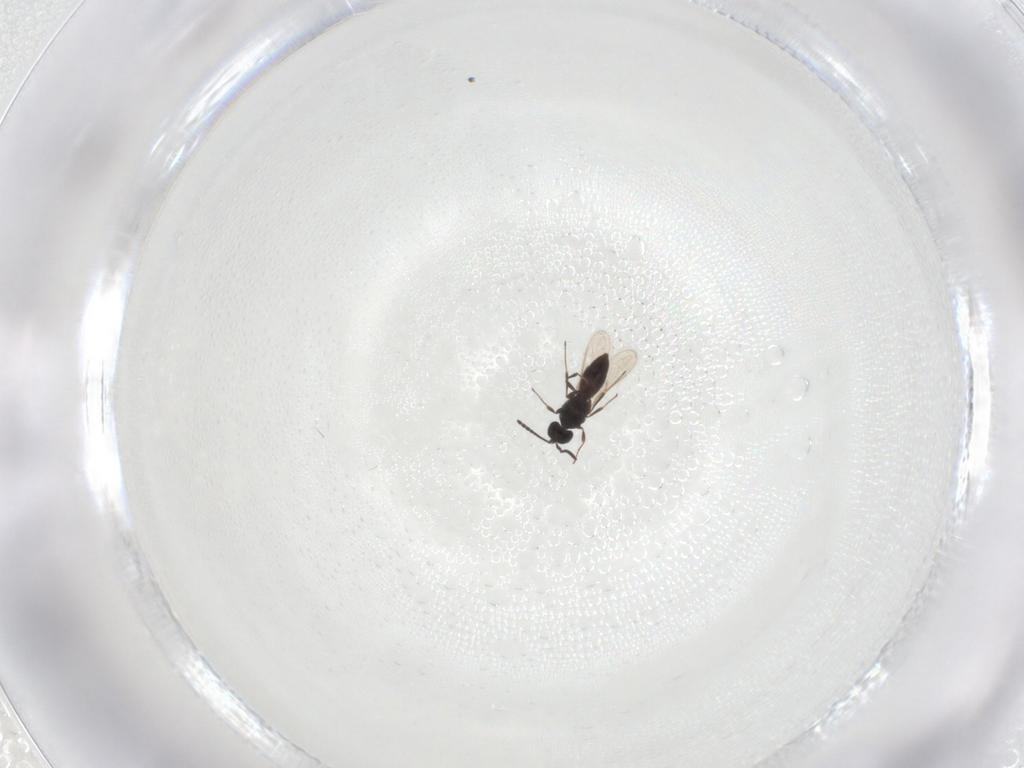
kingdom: Animalia
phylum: Arthropoda
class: Insecta
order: Hymenoptera
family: Scelionidae
